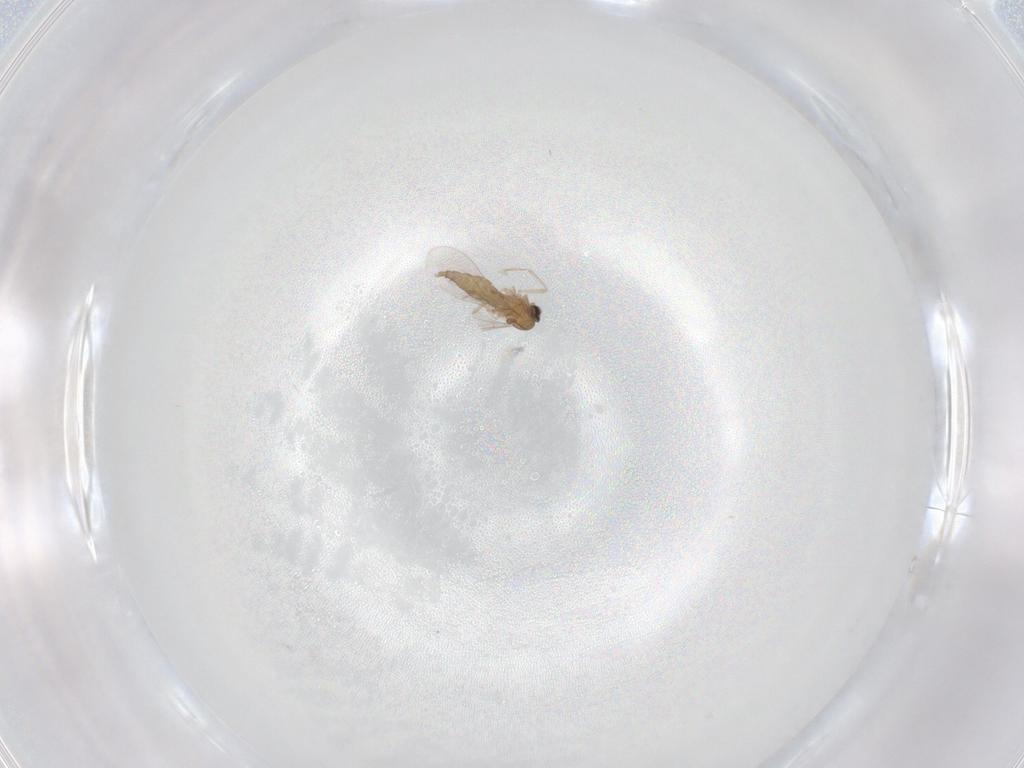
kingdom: Animalia
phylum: Arthropoda
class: Insecta
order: Diptera
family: Cecidomyiidae
